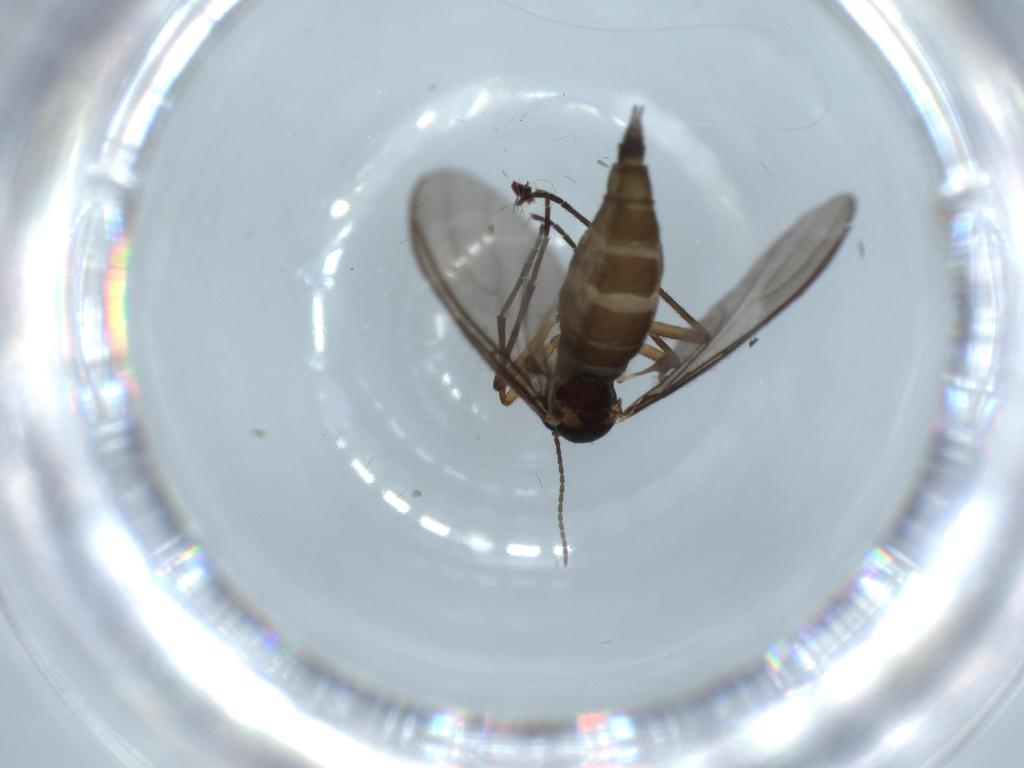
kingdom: Animalia
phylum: Arthropoda
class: Insecta
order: Diptera
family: Sciaridae
